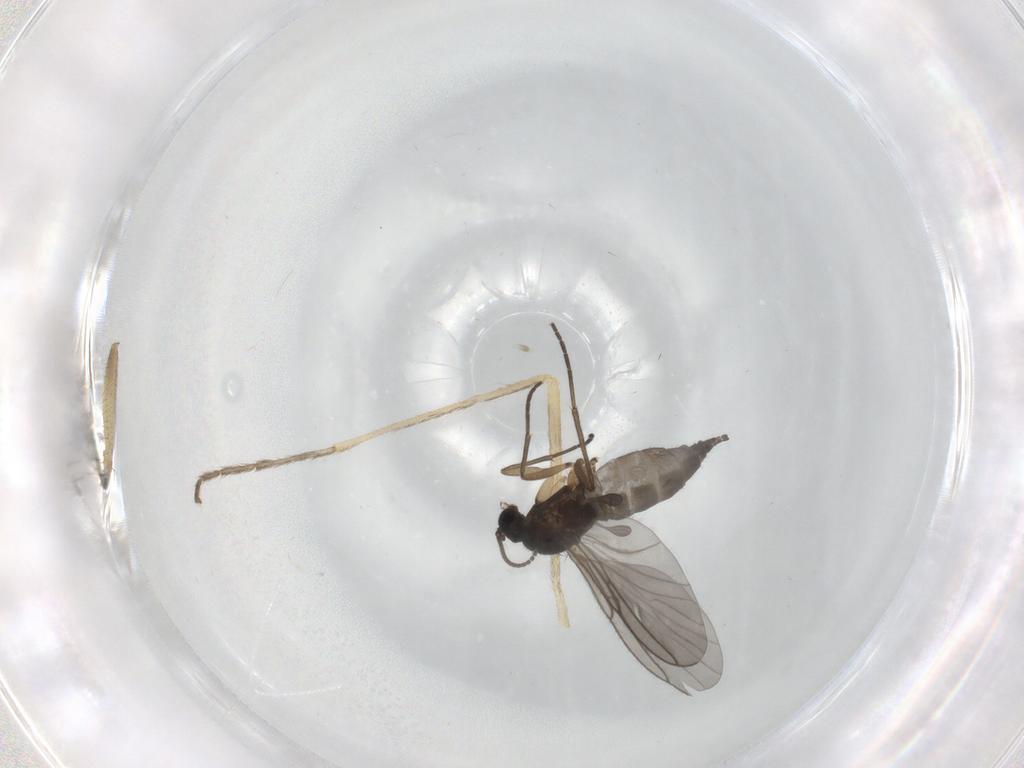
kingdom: Animalia
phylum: Arthropoda
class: Insecta
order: Diptera
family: Mycetophilidae
